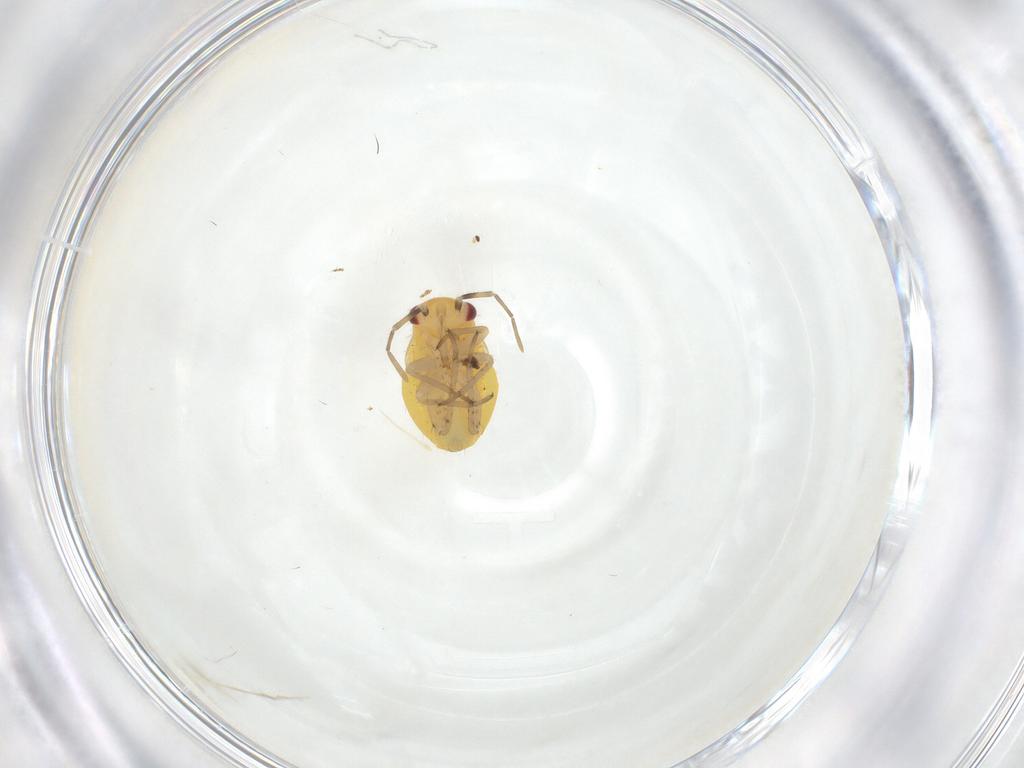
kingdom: Animalia
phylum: Arthropoda
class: Insecta
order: Hemiptera
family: Miridae
